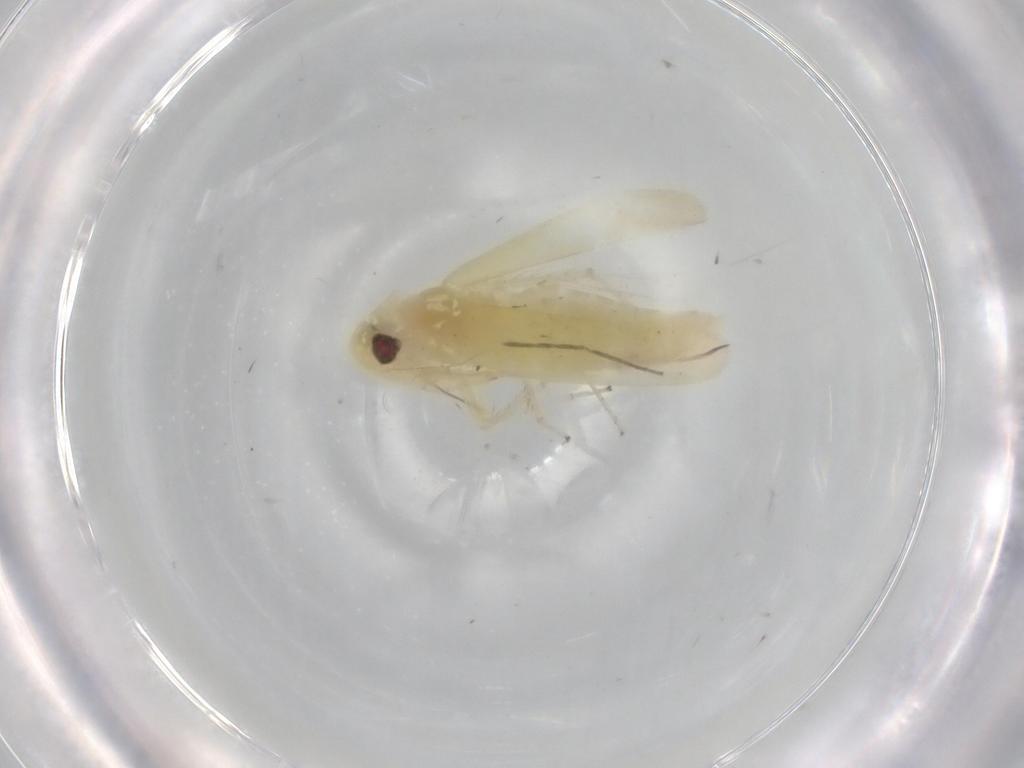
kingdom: Animalia
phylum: Arthropoda
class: Insecta
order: Hemiptera
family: Cicadellidae
